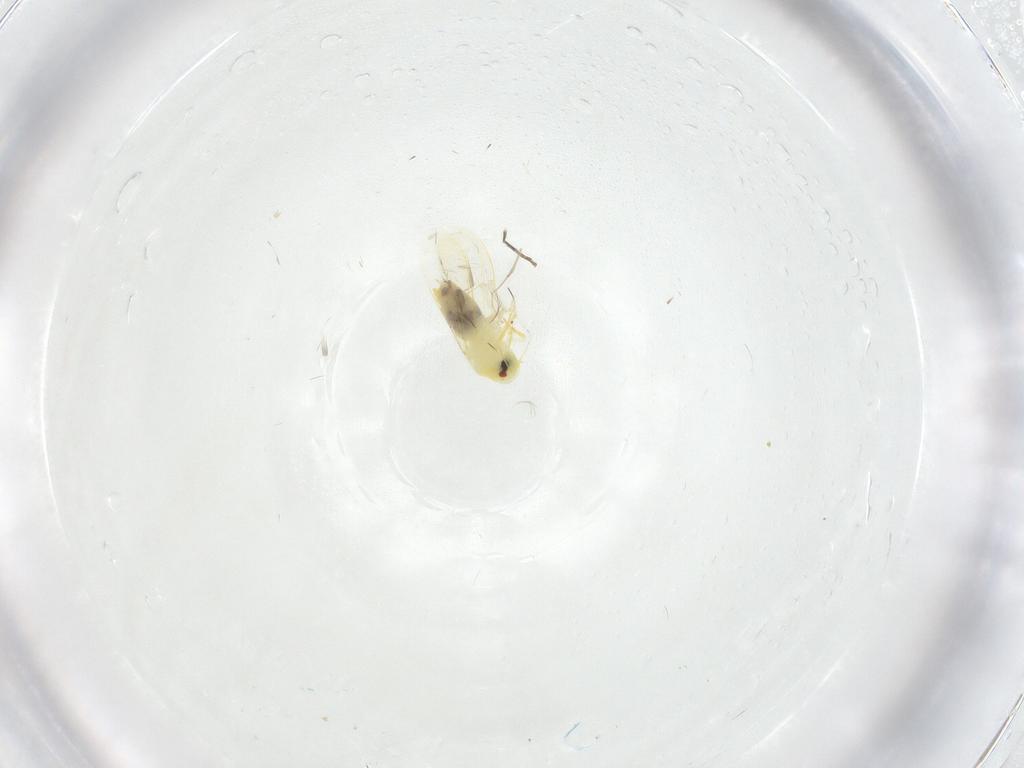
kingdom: Animalia
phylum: Arthropoda
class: Insecta
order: Hemiptera
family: Aleyrodidae
